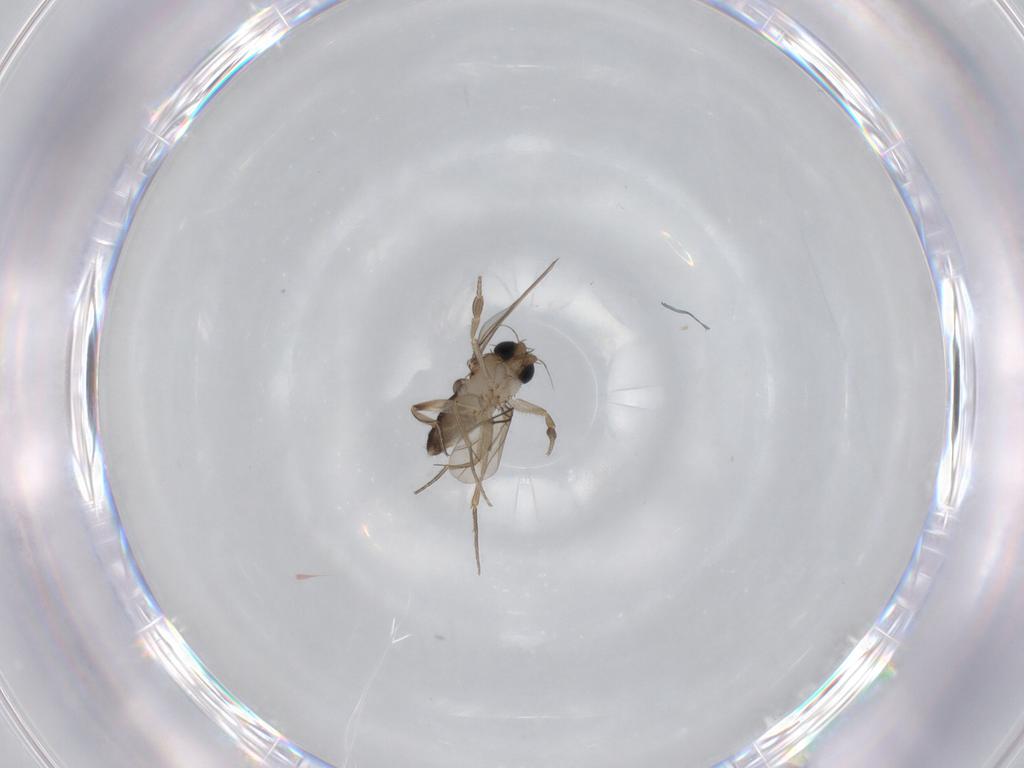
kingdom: Animalia
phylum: Arthropoda
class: Insecta
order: Diptera
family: Phoridae
